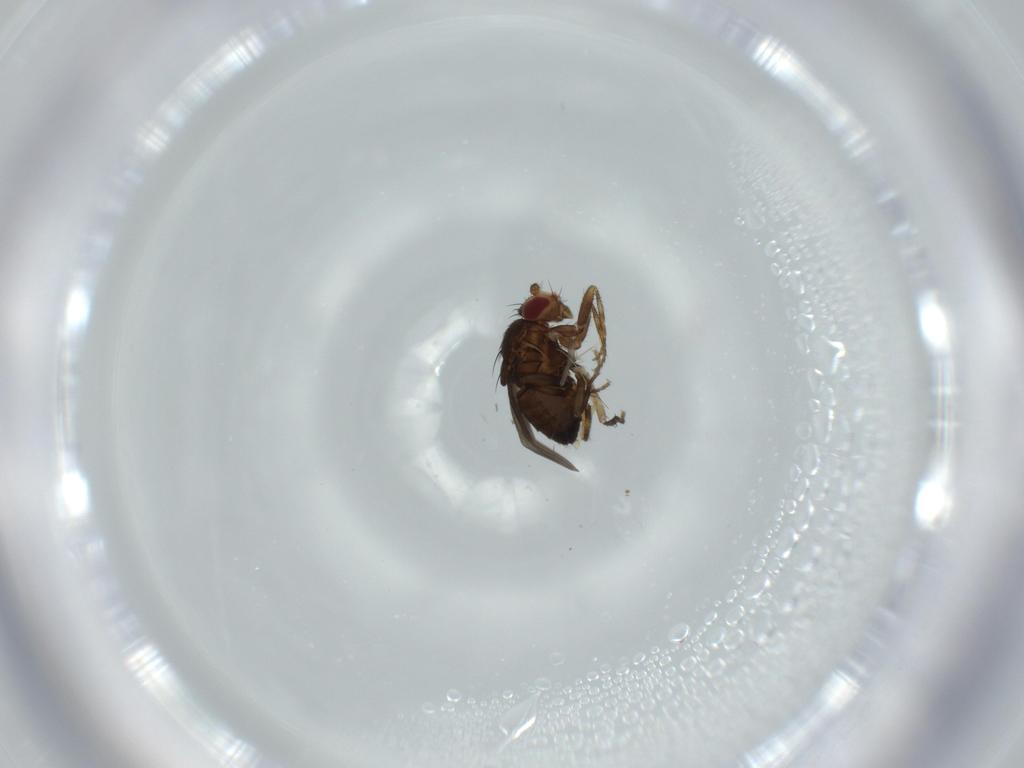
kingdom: Animalia
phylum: Arthropoda
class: Insecta
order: Diptera
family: Sphaeroceridae
